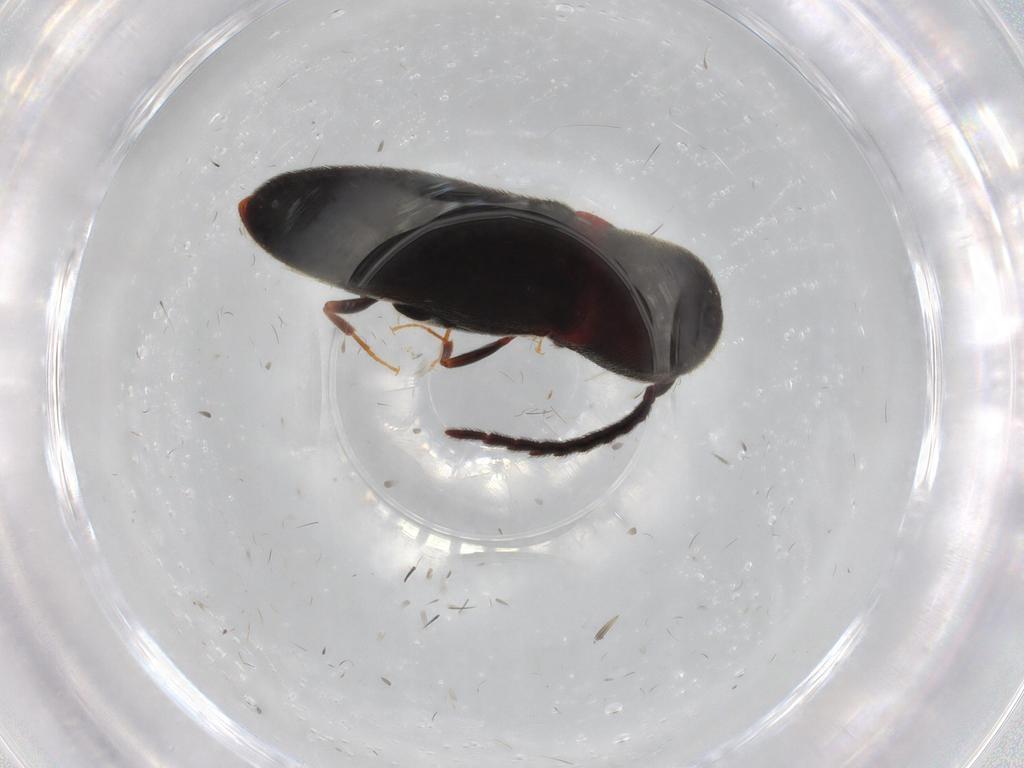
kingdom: Animalia
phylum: Arthropoda
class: Insecta
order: Coleoptera
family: Eucnemidae
